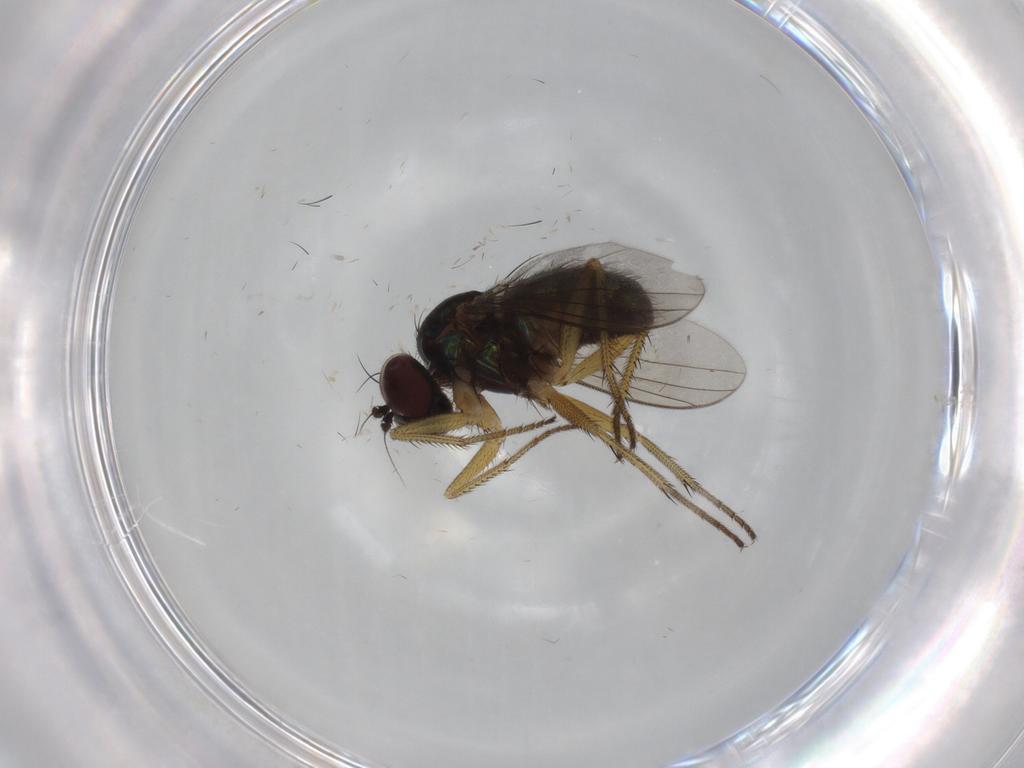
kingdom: Animalia
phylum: Arthropoda
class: Insecta
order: Diptera
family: Dolichopodidae
